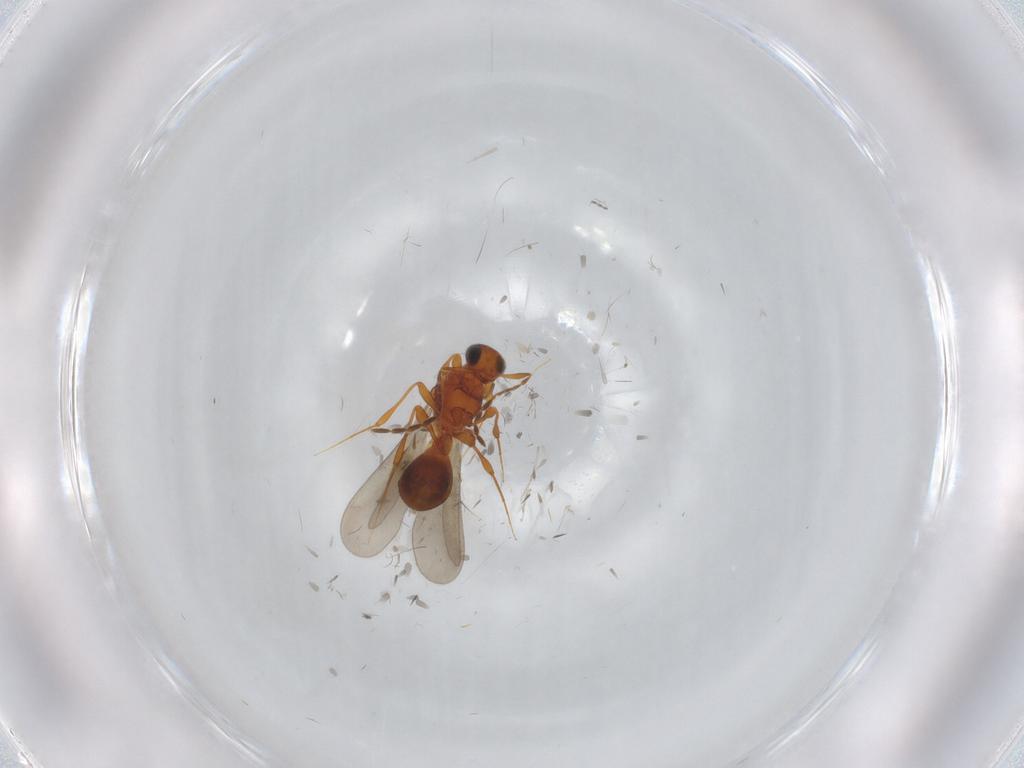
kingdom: Animalia
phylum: Arthropoda
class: Insecta
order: Hymenoptera
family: Platygastridae
